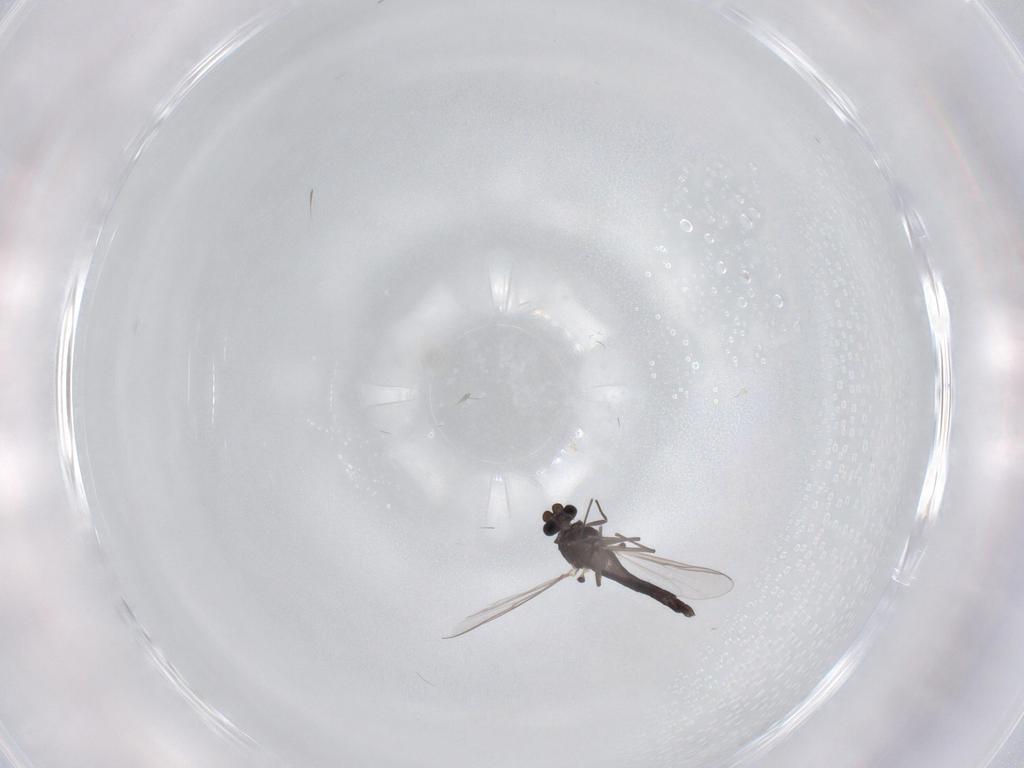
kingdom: Animalia
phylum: Arthropoda
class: Insecta
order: Diptera
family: Chironomidae
